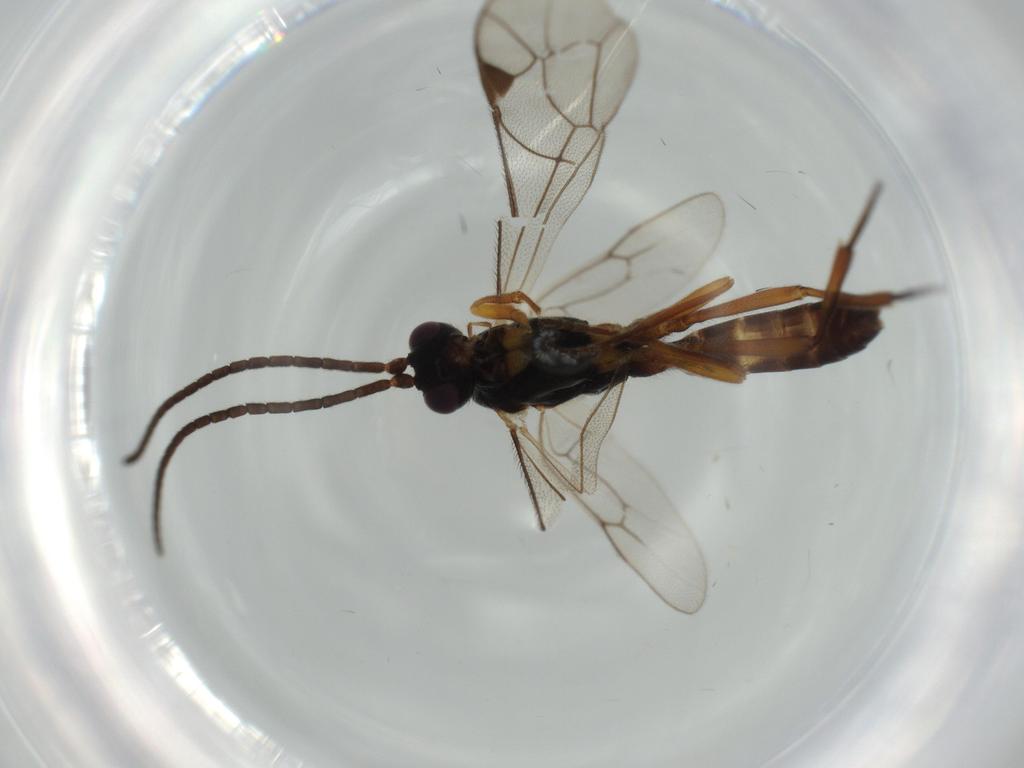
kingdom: Animalia
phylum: Arthropoda
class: Insecta
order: Hymenoptera
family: Ichneumonidae
